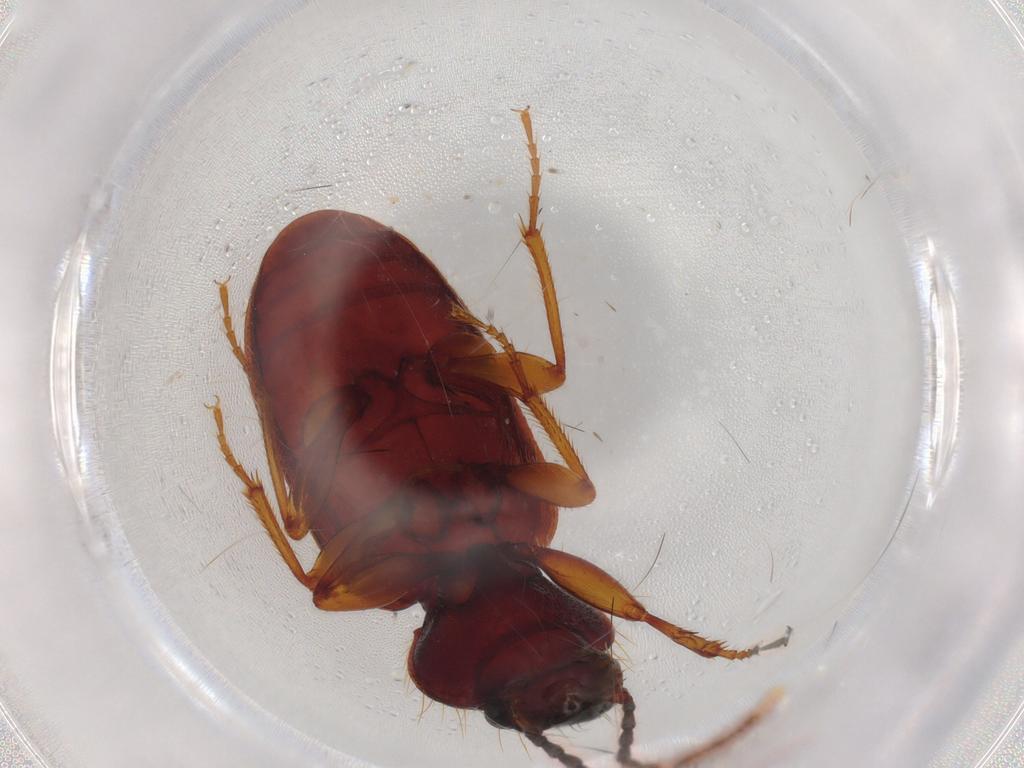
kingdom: Animalia
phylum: Arthropoda
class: Insecta
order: Coleoptera
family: Carabidae
